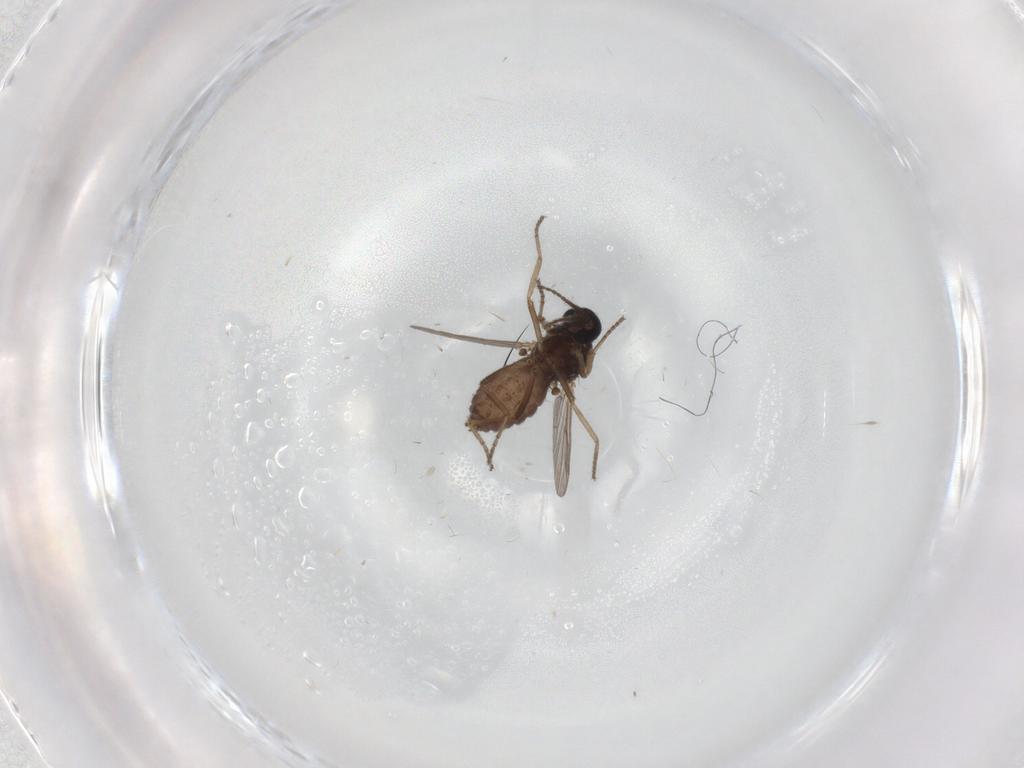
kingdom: Animalia
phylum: Arthropoda
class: Insecta
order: Diptera
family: Ceratopogonidae
